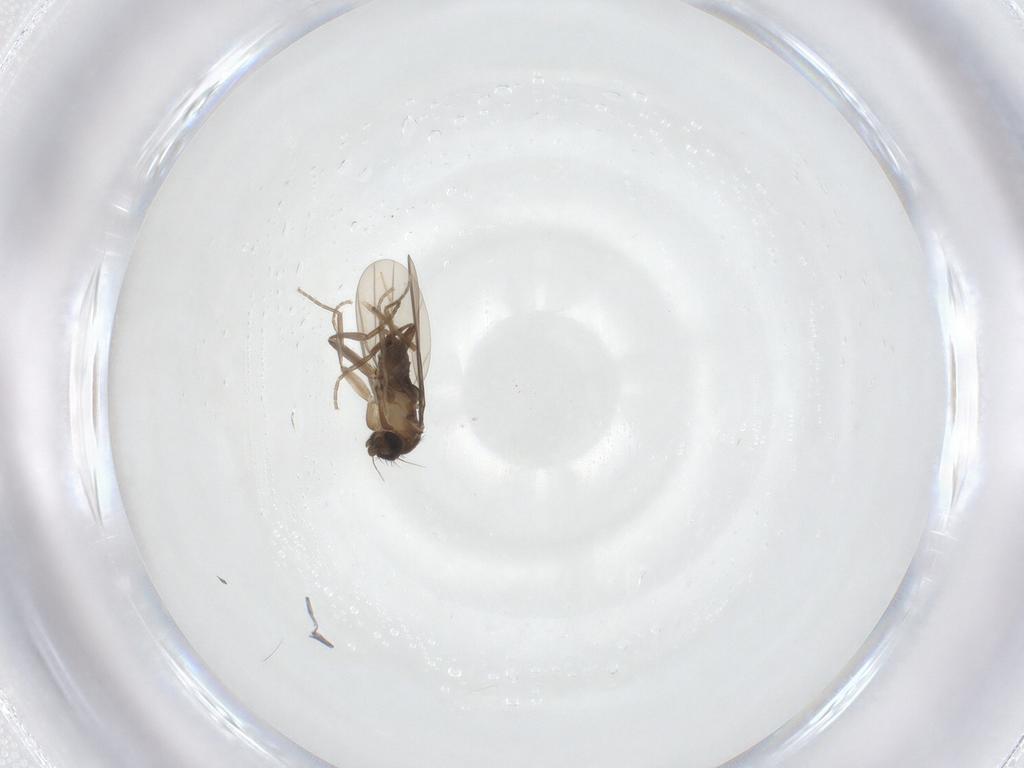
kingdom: Animalia
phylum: Arthropoda
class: Insecta
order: Diptera
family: Phoridae
